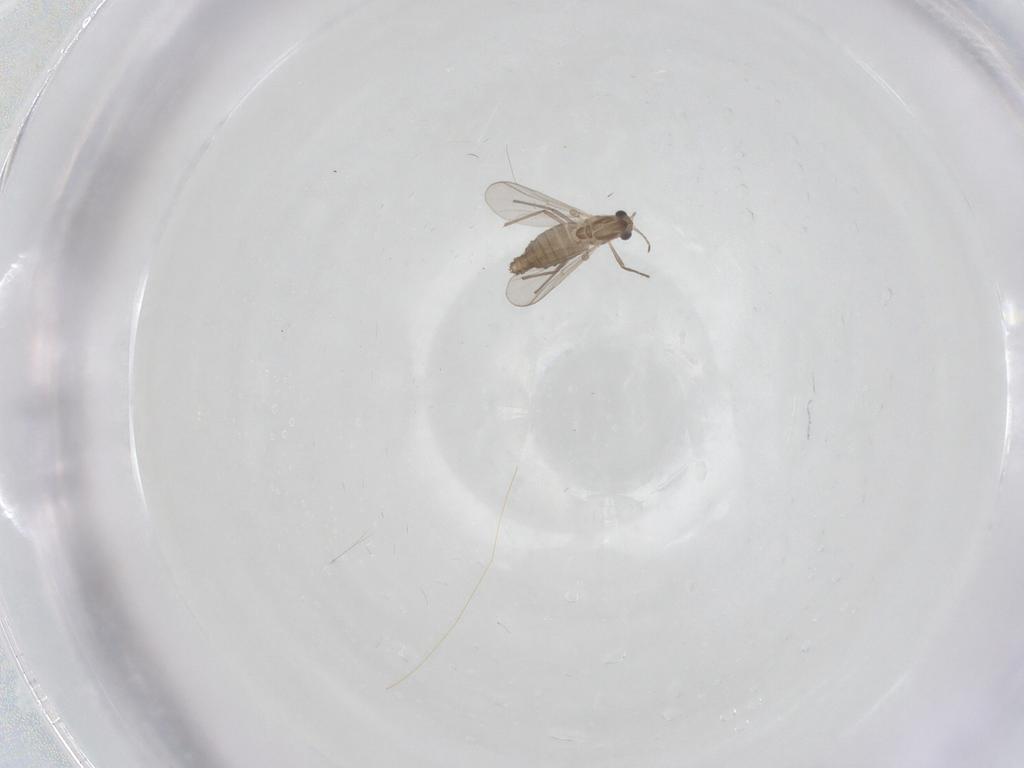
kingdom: Animalia
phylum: Arthropoda
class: Insecta
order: Diptera
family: Chironomidae
